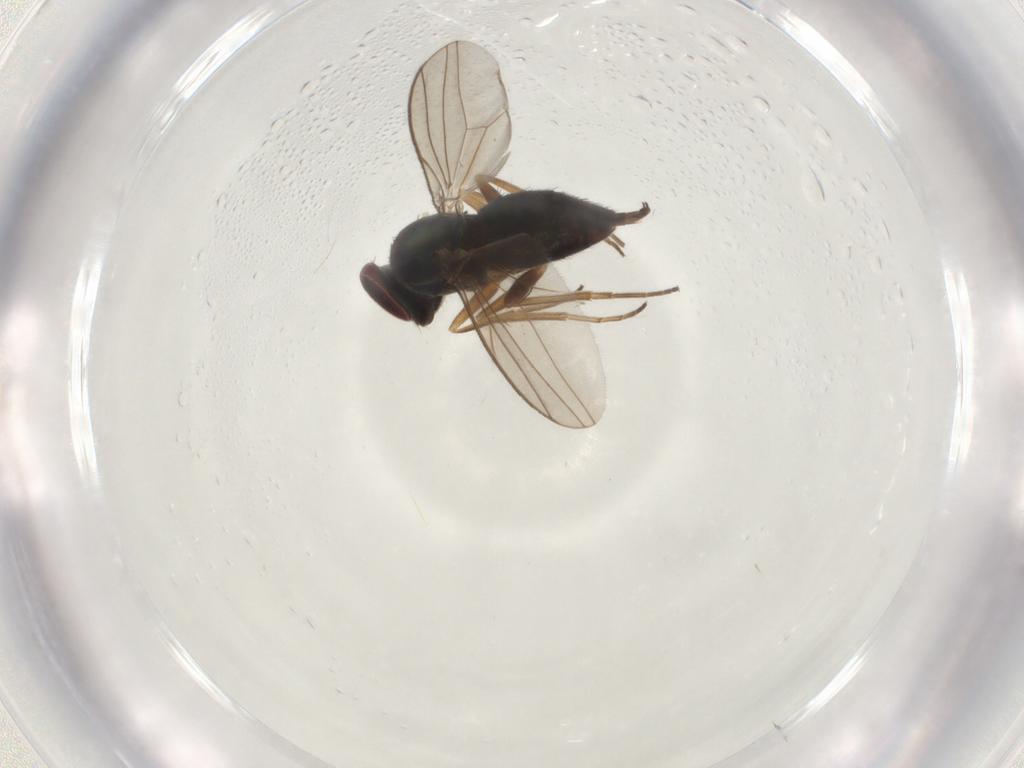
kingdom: Animalia
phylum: Arthropoda
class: Insecta
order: Diptera
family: Dolichopodidae
